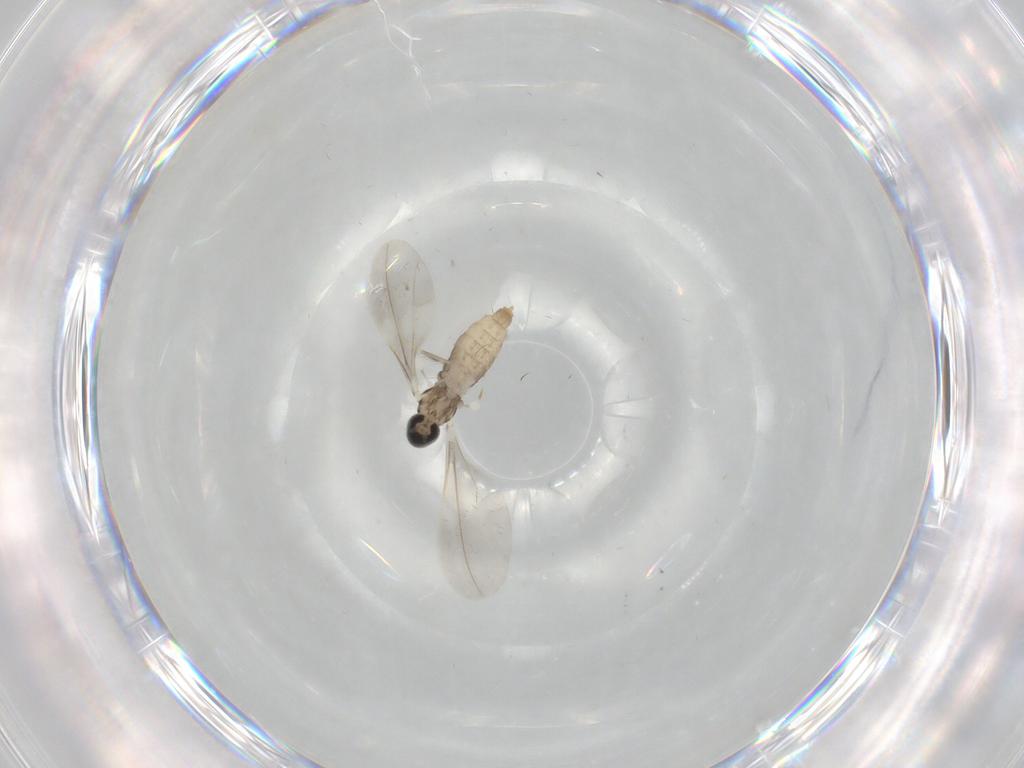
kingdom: Animalia
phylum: Arthropoda
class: Insecta
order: Diptera
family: Cecidomyiidae
